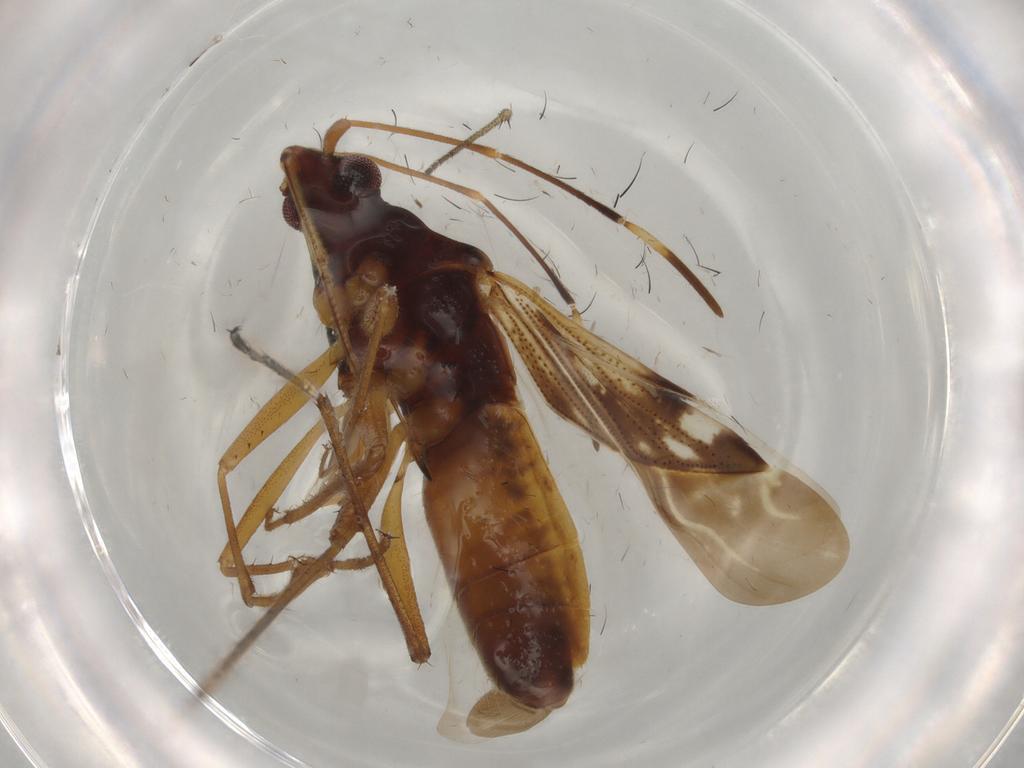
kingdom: Animalia
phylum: Arthropoda
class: Insecta
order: Hemiptera
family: Rhyparochromidae
